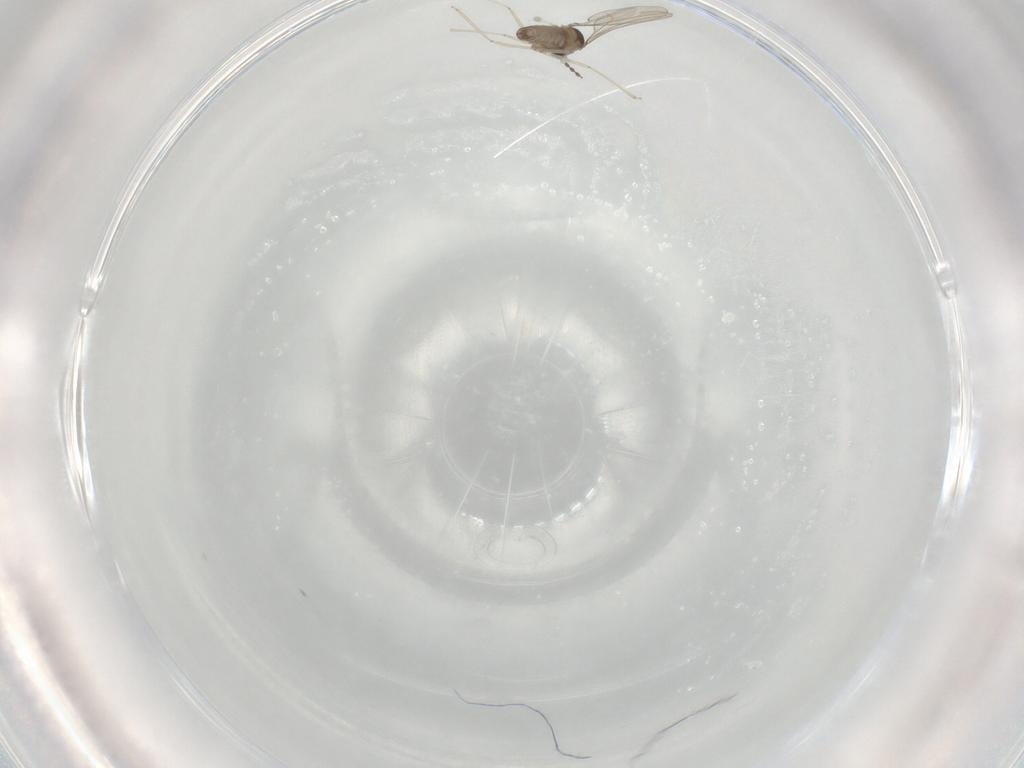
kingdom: Animalia
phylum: Arthropoda
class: Insecta
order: Diptera
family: Cecidomyiidae
